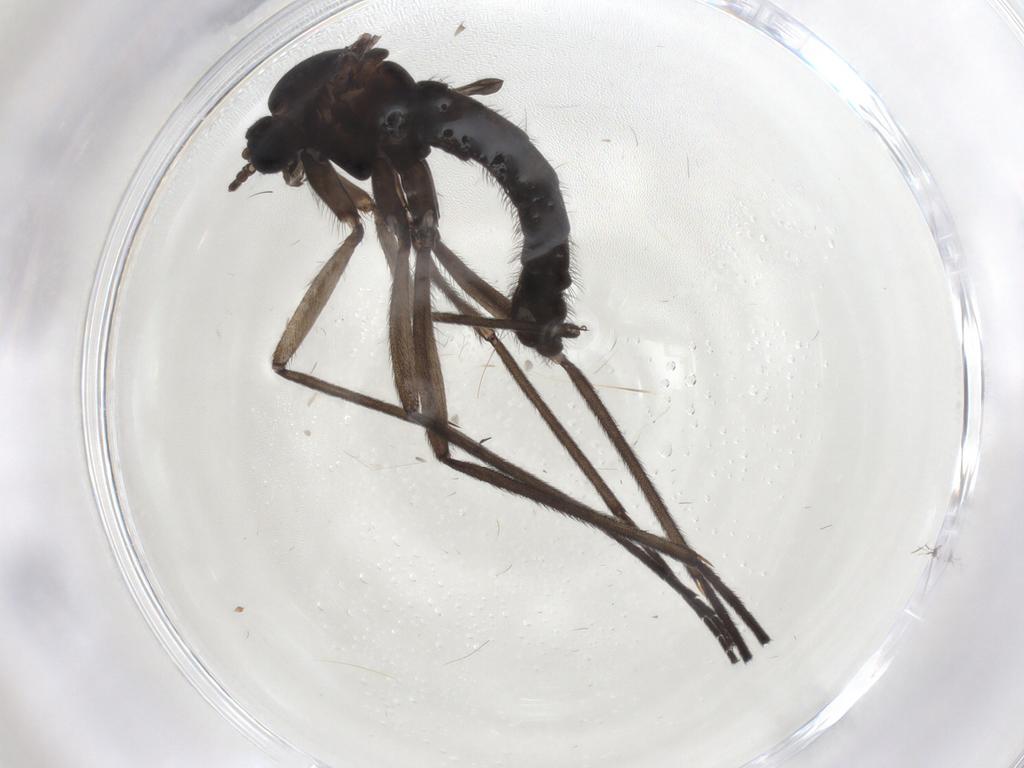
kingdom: Animalia
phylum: Arthropoda
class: Insecta
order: Diptera
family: Sciaridae
